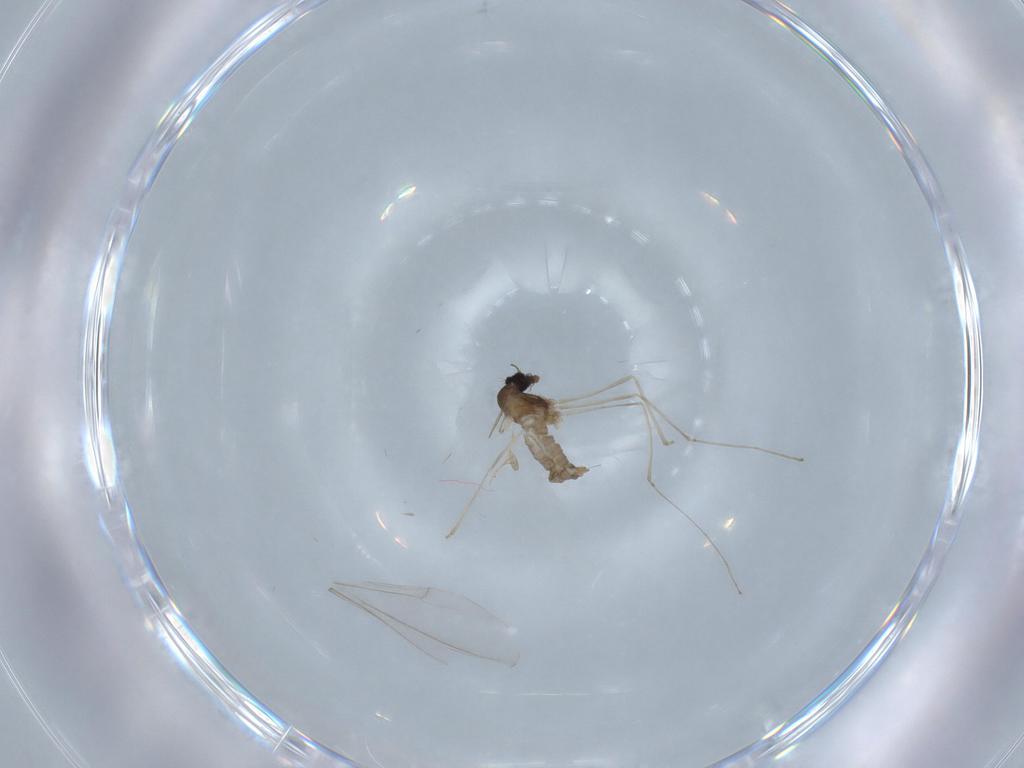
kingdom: Animalia
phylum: Arthropoda
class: Insecta
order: Diptera
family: Cecidomyiidae
